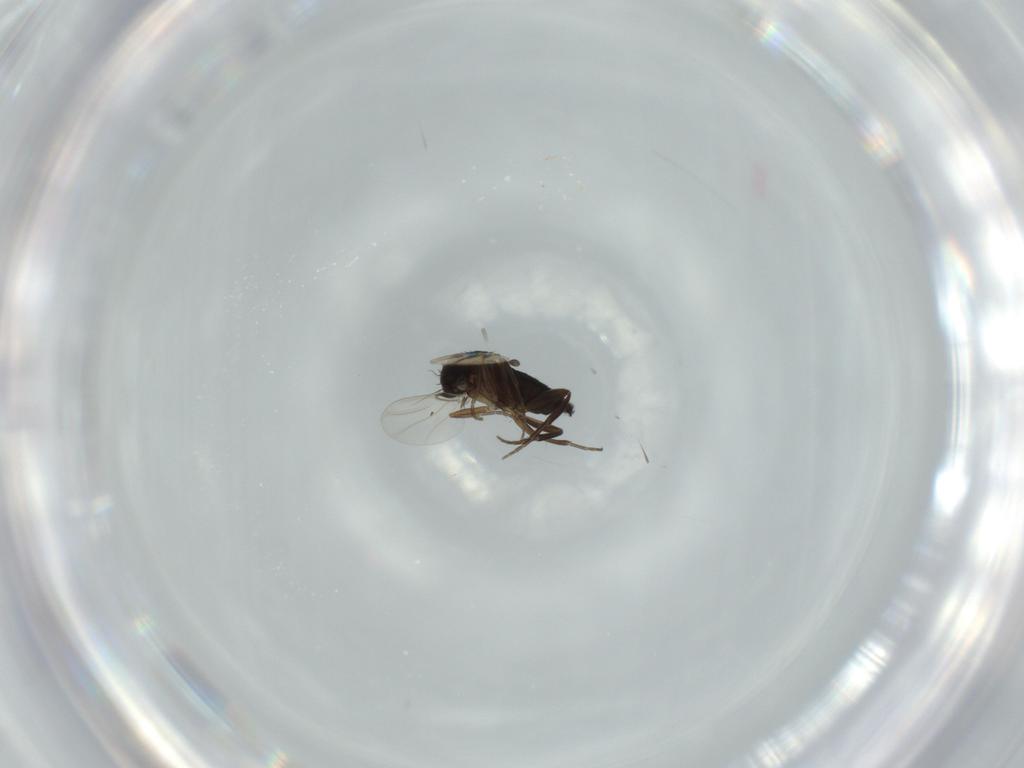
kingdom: Animalia
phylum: Arthropoda
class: Insecta
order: Diptera
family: Phoridae
